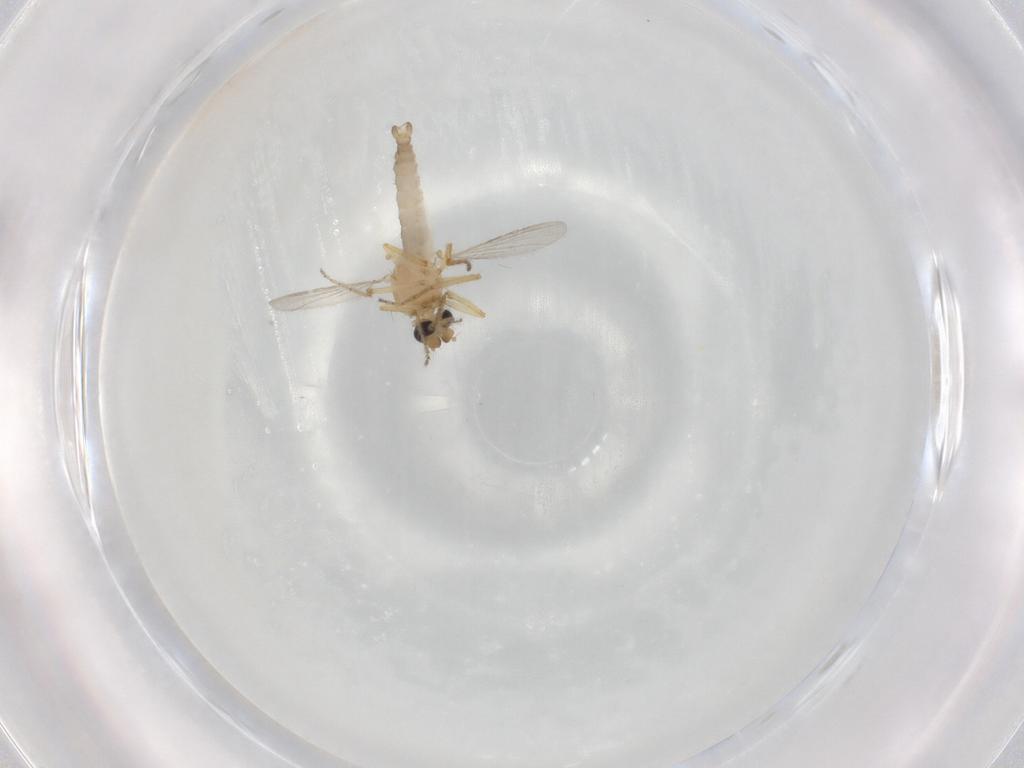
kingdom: Animalia
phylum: Arthropoda
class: Insecta
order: Diptera
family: Ceratopogonidae
